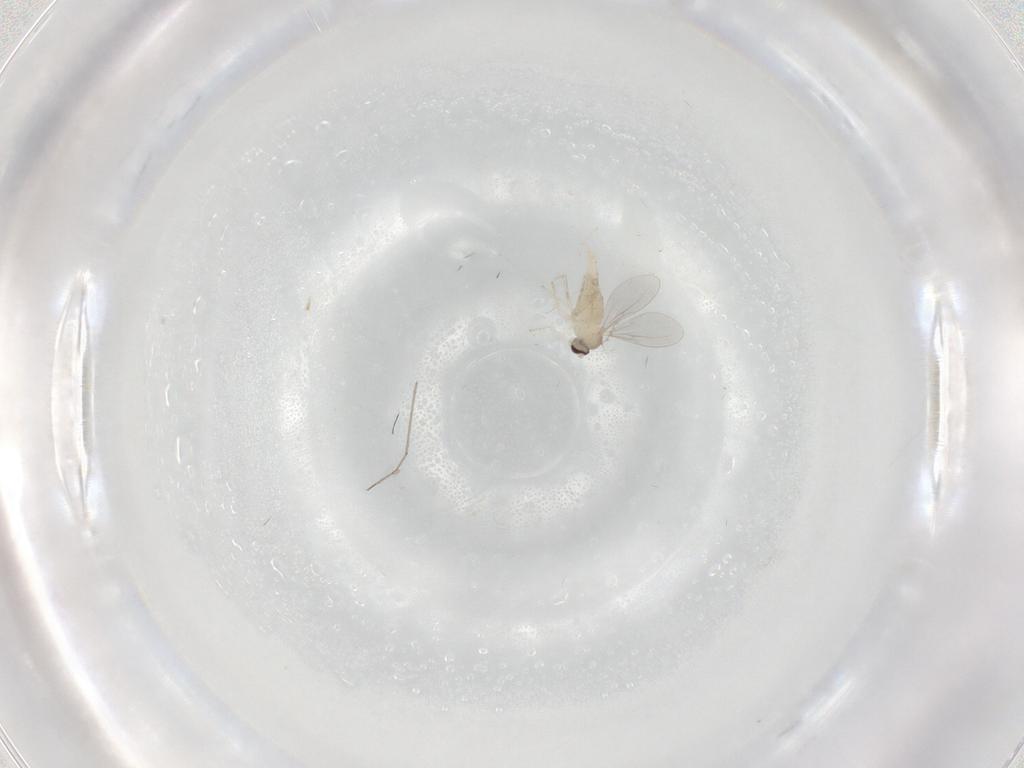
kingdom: Animalia
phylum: Arthropoda
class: Insecta
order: Diptera
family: Cecidomyiidae
